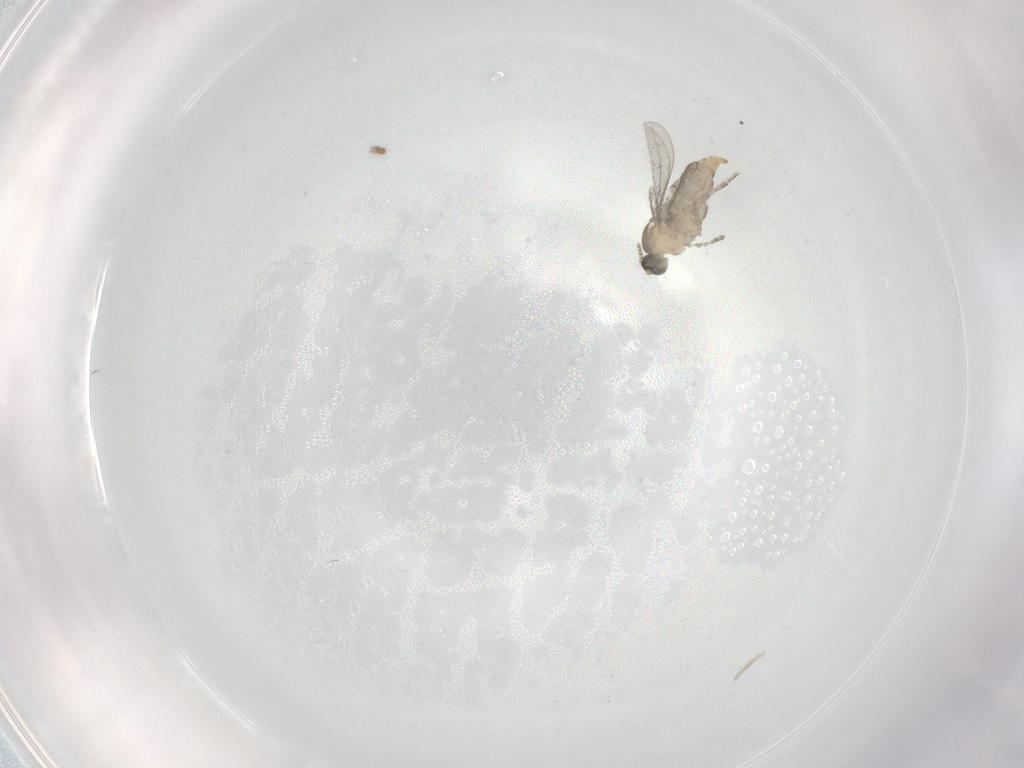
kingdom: Animalia
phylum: Arthropoda
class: Insecta
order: Diptera
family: Cecidomyiidae
